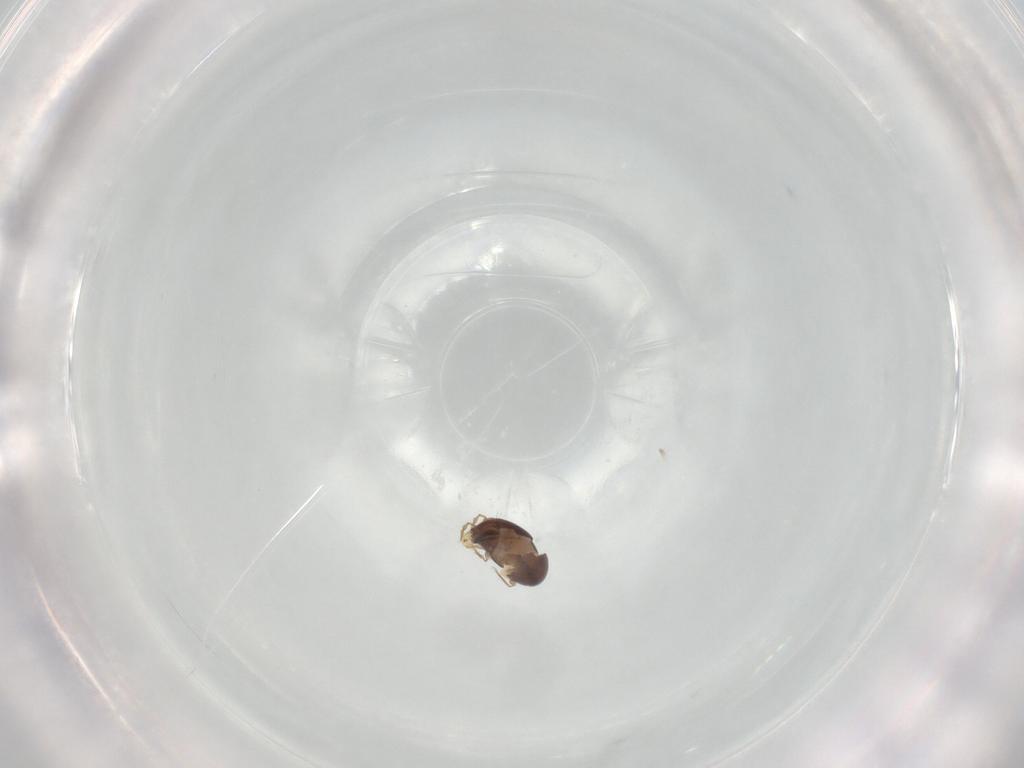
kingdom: Animalia
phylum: Arthropoda
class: Arachnida
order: Sarcoptiformes
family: Galumnidae
